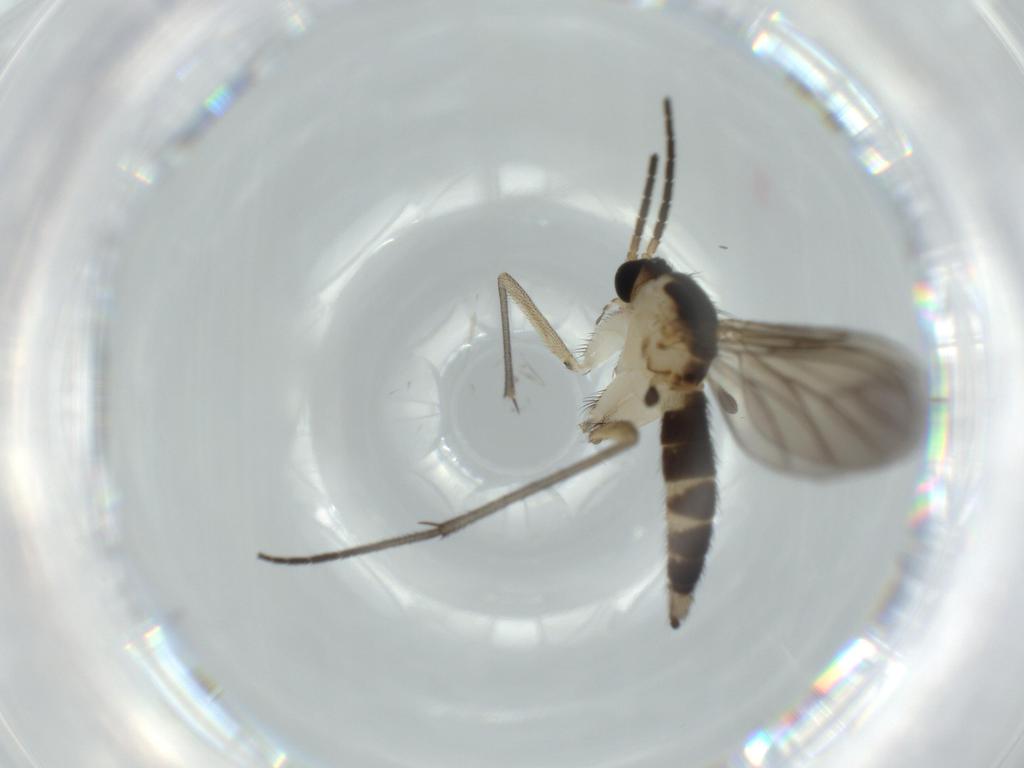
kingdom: Animalia
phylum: Arthropoda
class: Insecta
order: Diptera
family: Sciaridae
